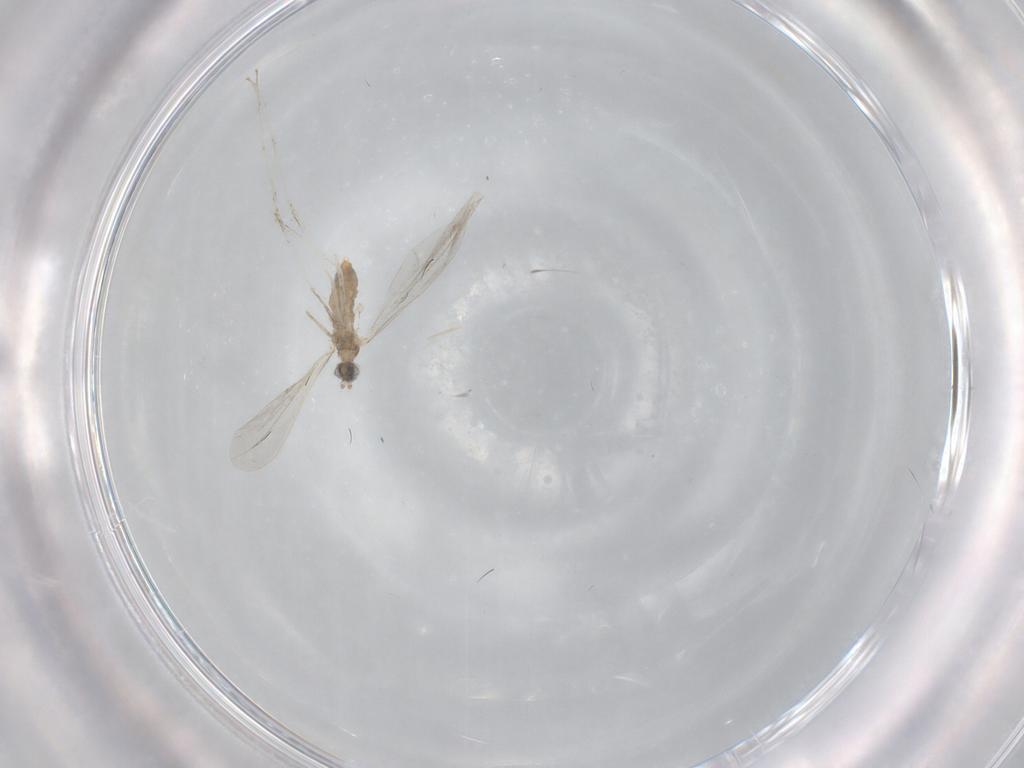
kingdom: Animalia
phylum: Arthropoda
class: Insecta
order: Diptera
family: Cecidomyiidae
